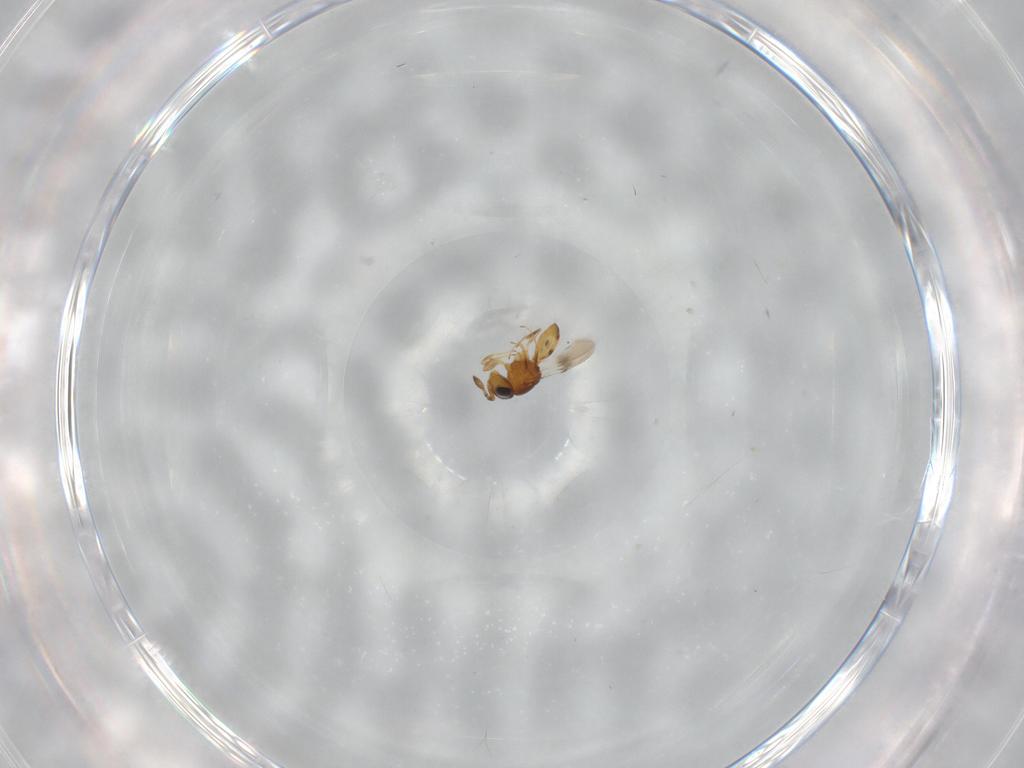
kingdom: Animalia
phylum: Arthropoda
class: Insecta
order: Hymenoptera
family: Scelionidae
